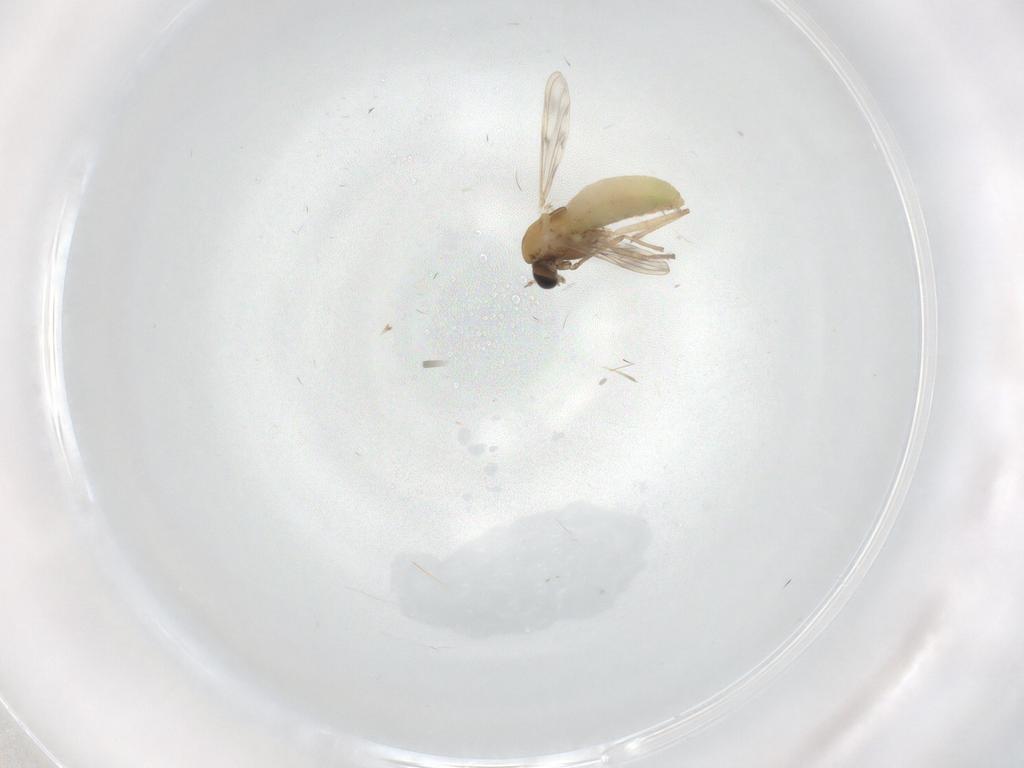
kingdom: Animalia
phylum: Arthropoda
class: Insecta
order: Diptera
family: Chironomidae
